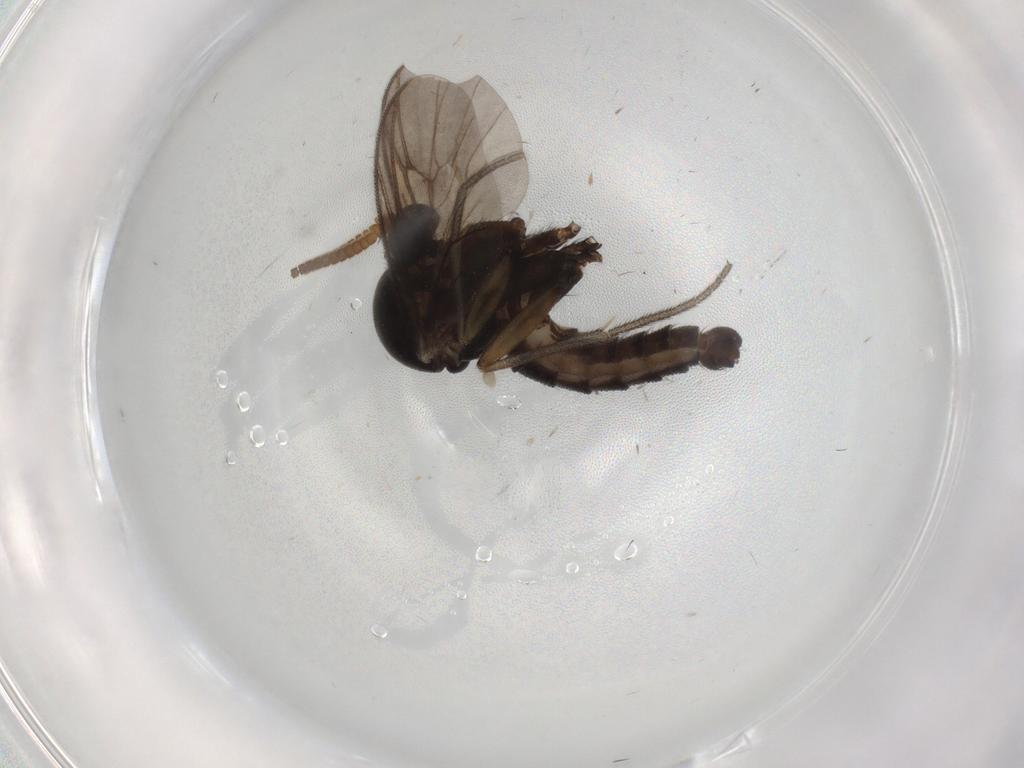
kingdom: Animalia
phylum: Arthropoda
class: Insecta
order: Diptera
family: Mycetophilidae
